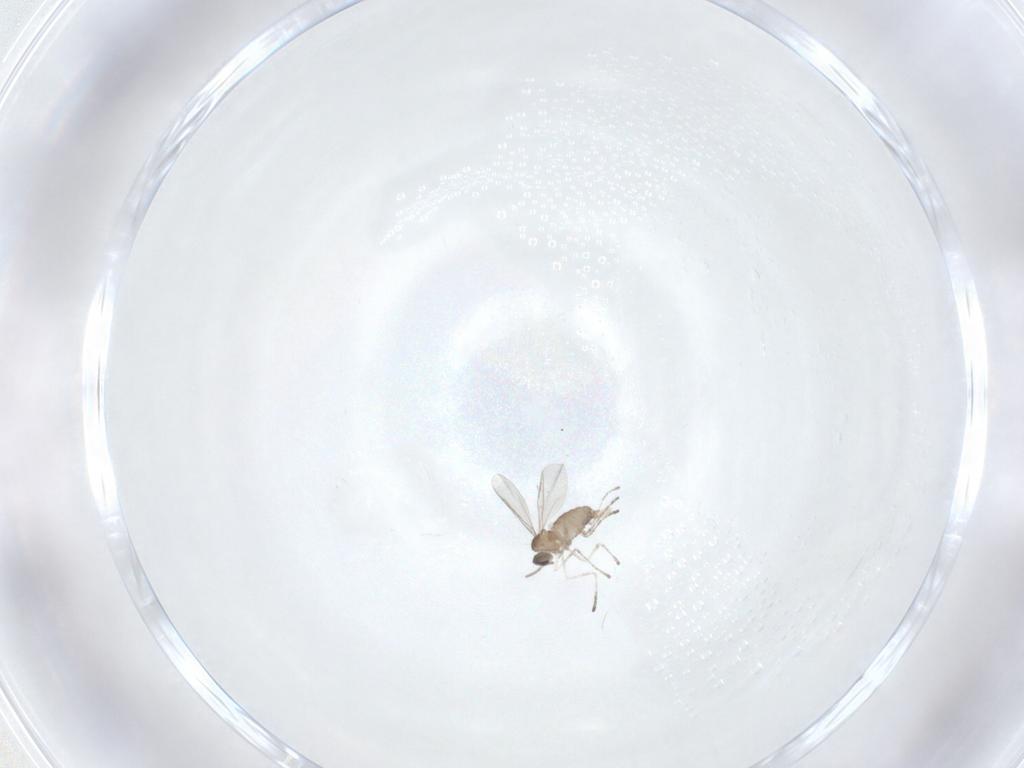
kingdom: Animalia
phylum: Arthropoda
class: Insecta
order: Diptera
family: Cecidomyiidae
